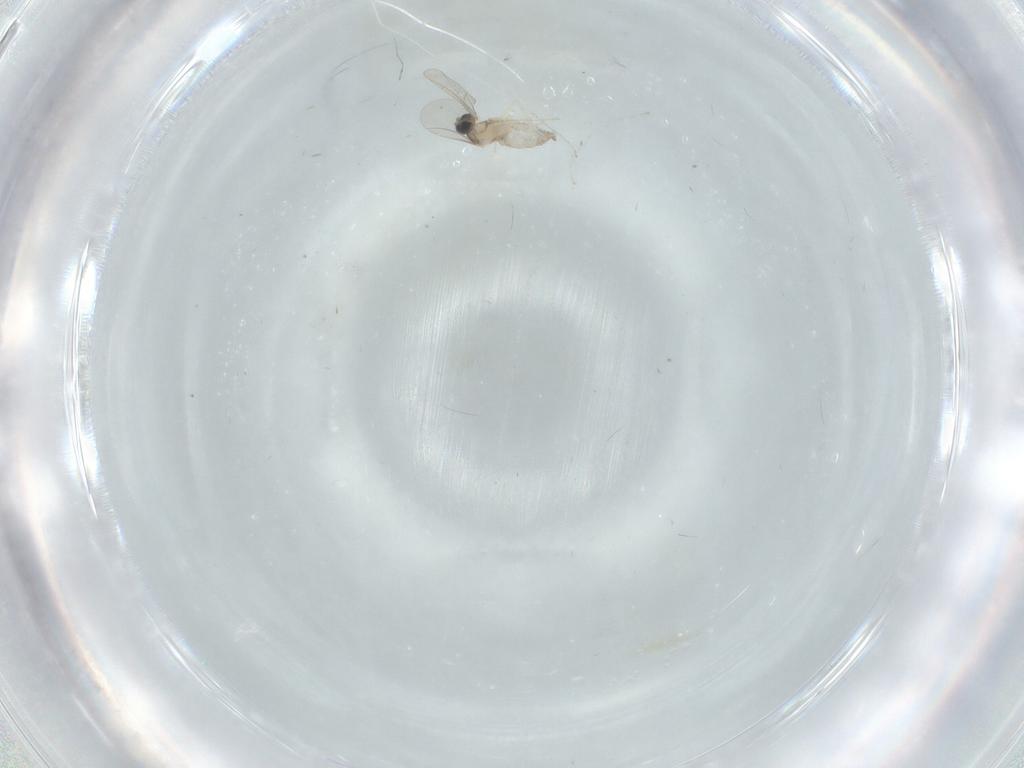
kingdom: Animalia
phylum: Arthropoda
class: Insecta
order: Diptera
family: Cecidomyiidae
